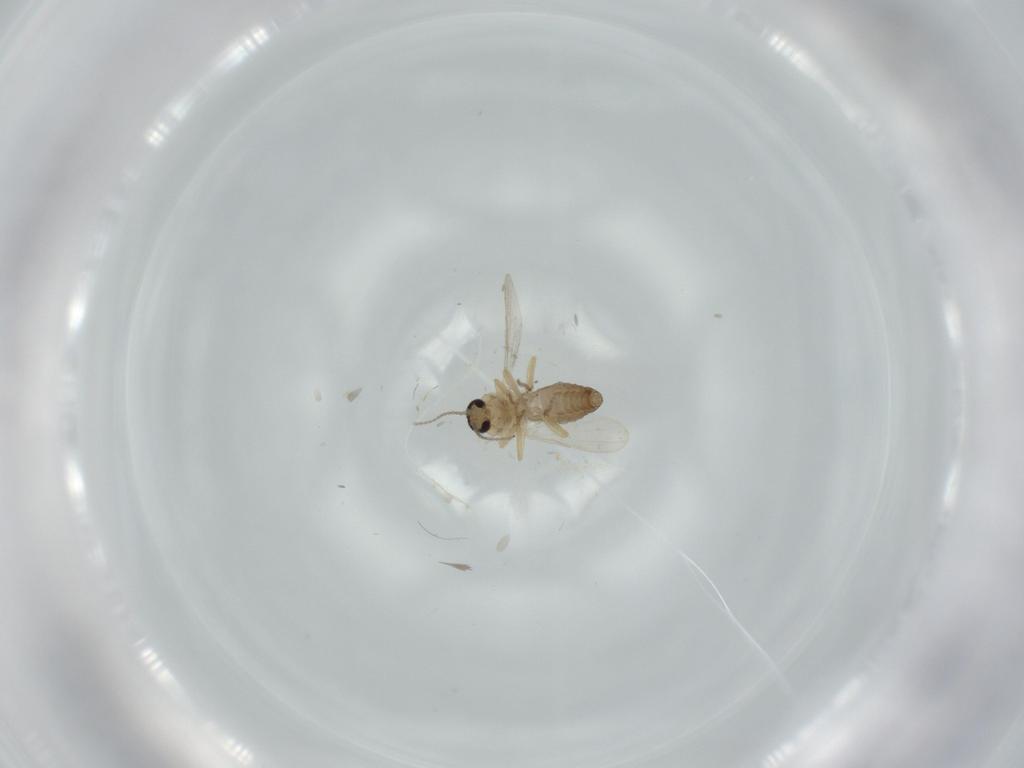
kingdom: Animalia
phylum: Arthropoda
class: Insecta
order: Diptera
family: Ceratopogonidae
